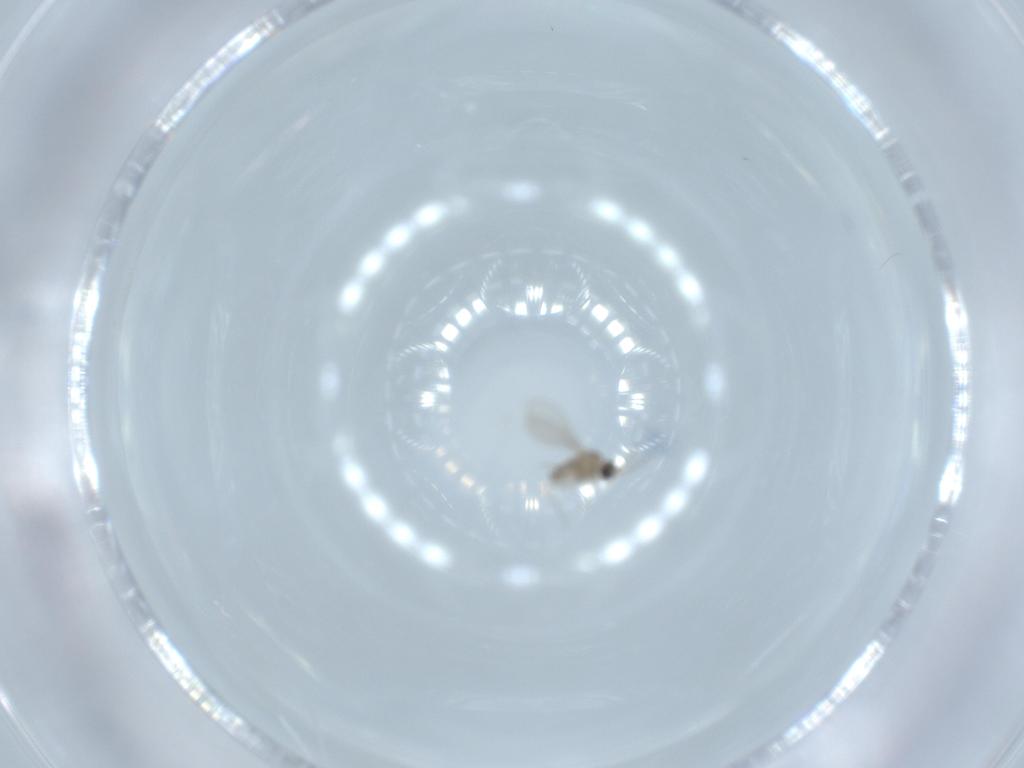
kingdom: Animalia
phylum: Arthropoda
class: Insecta
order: Diptera
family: Cecidomyiidae
